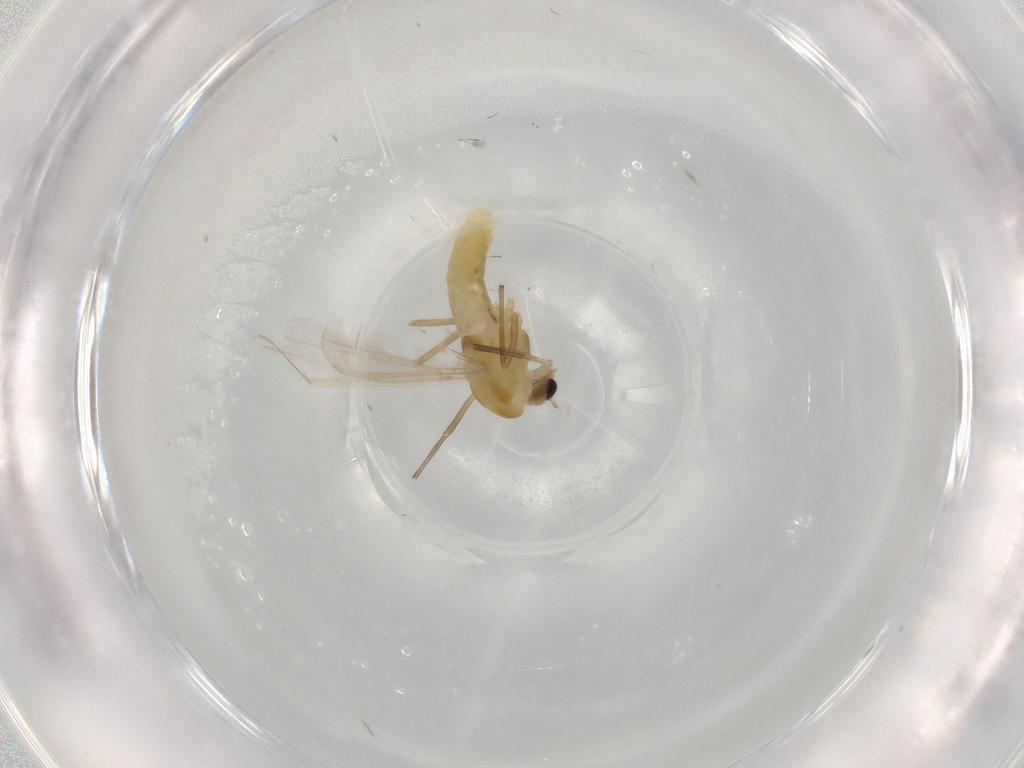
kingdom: Animalia
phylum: Arthropoda
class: Insecta
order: Diptera
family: Chironomidae
